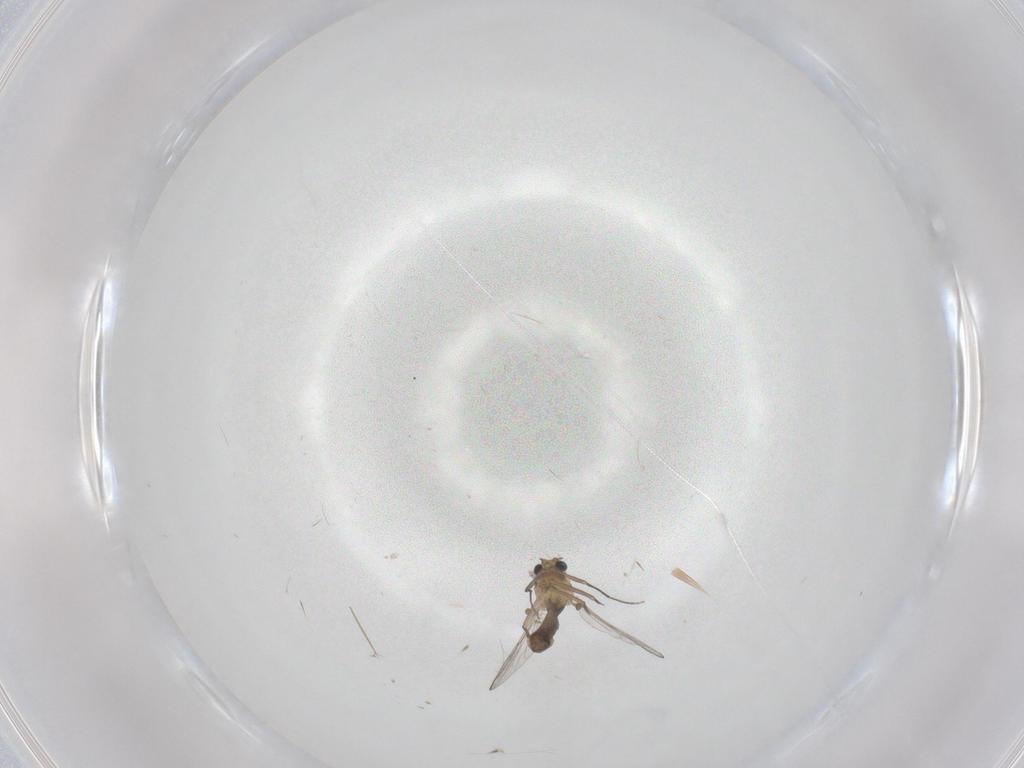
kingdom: Animalia
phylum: Arthropoda
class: Insecta
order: Diptera
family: Chironomidae
